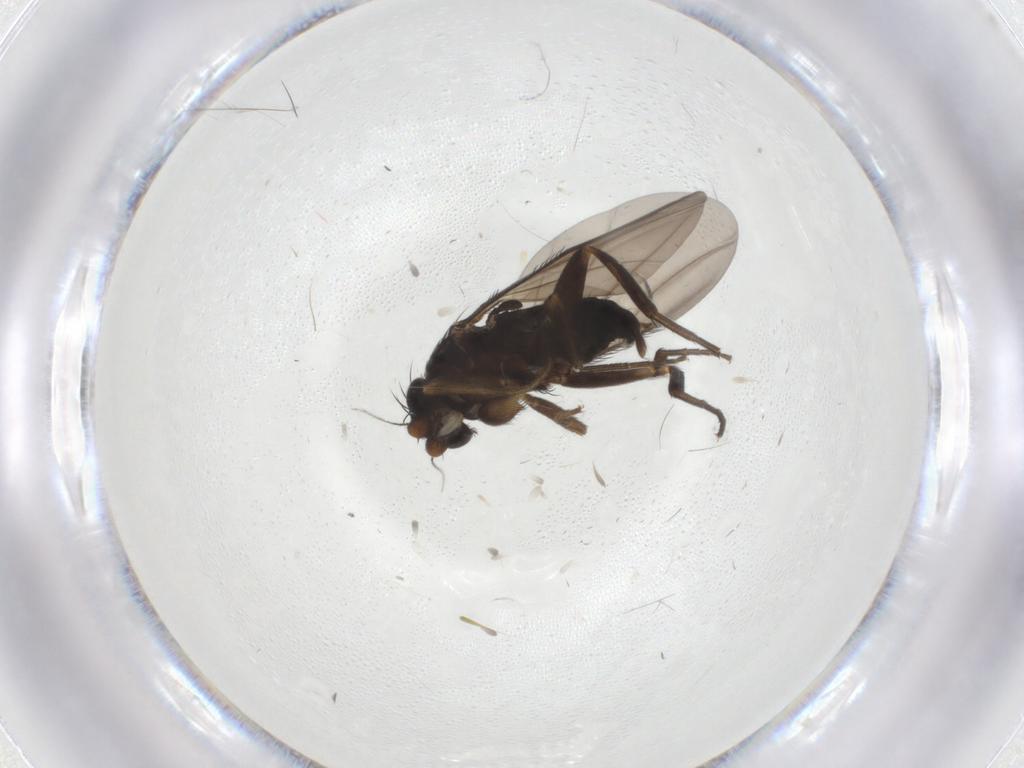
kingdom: Animalia
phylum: Arthropoda
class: Insecta
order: Diptera
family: Phoridae
